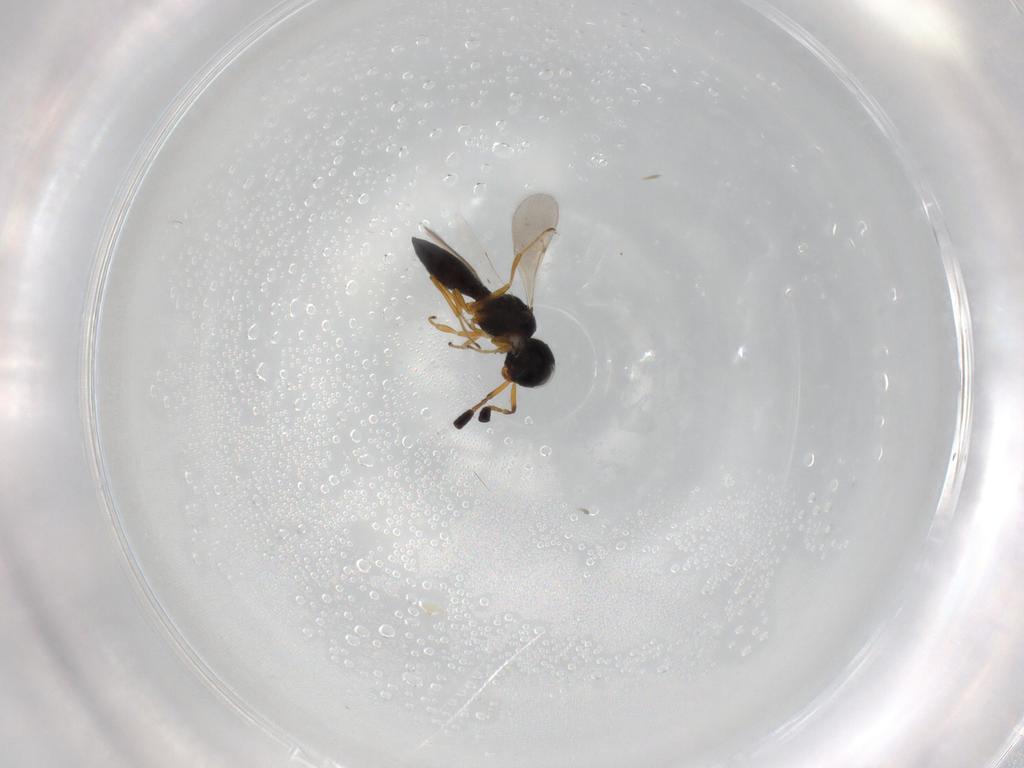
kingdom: Animalia
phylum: Arthropoda
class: Insecta
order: Hymenoptera
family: Scelionidae
